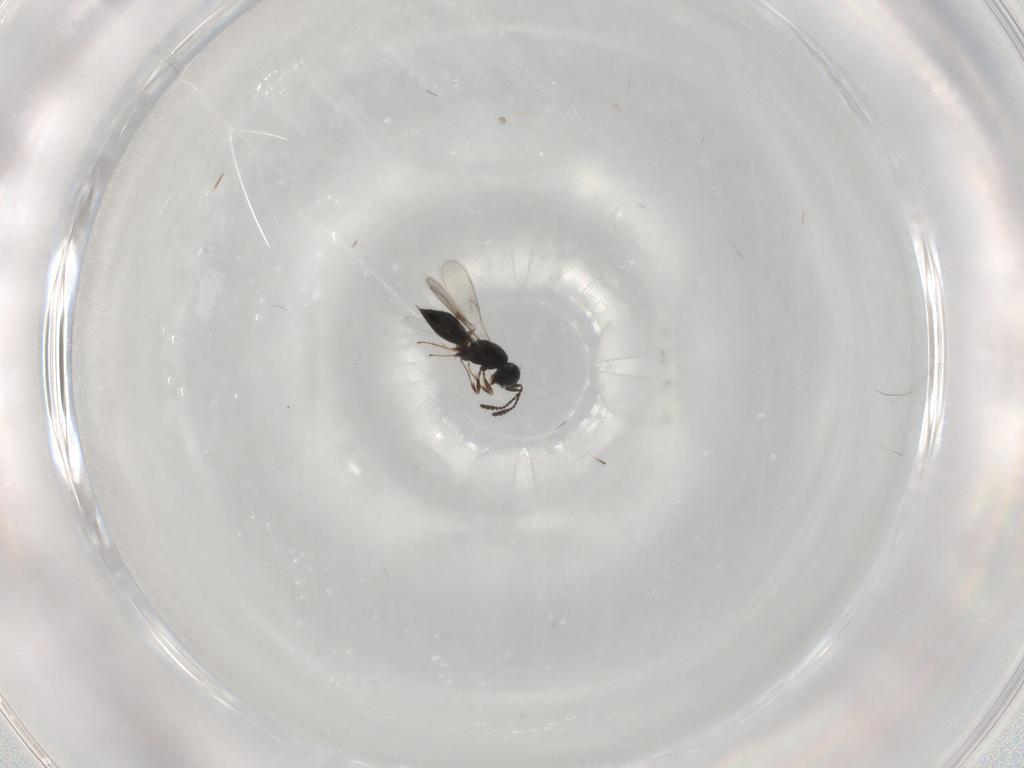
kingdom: Animalia
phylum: Arthropoda
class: Insecta
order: Hymenoptera
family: Scelionidae
